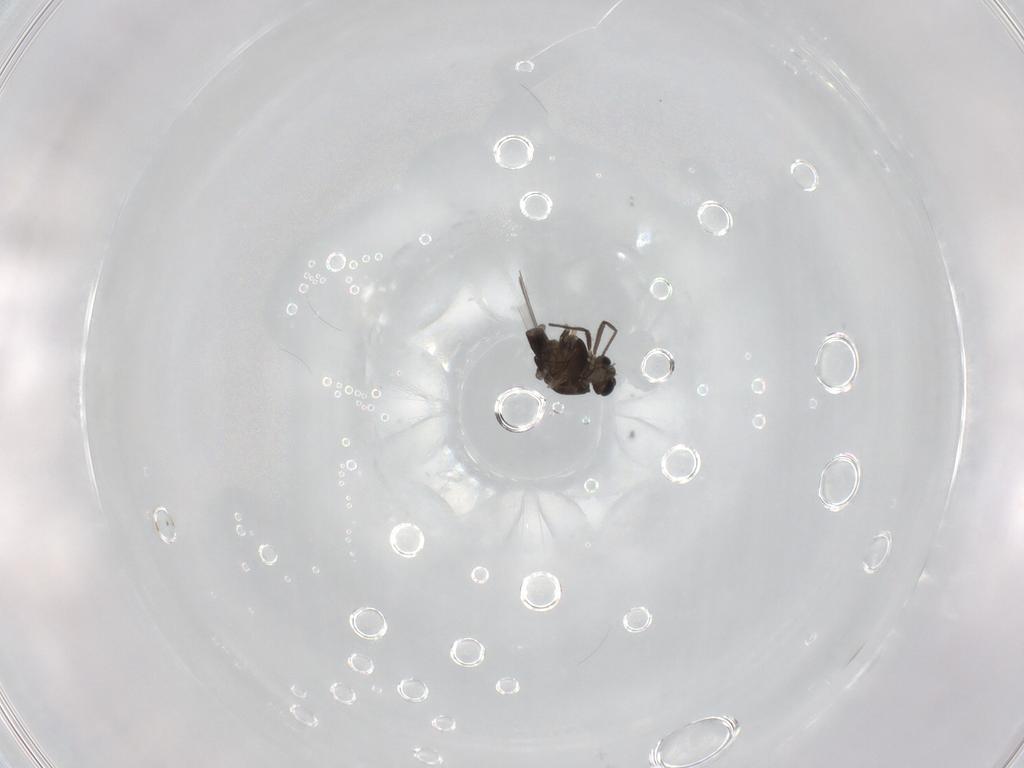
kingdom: Animalia
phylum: Arthropoda
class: Insecta
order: Diptera
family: Chironomidae
